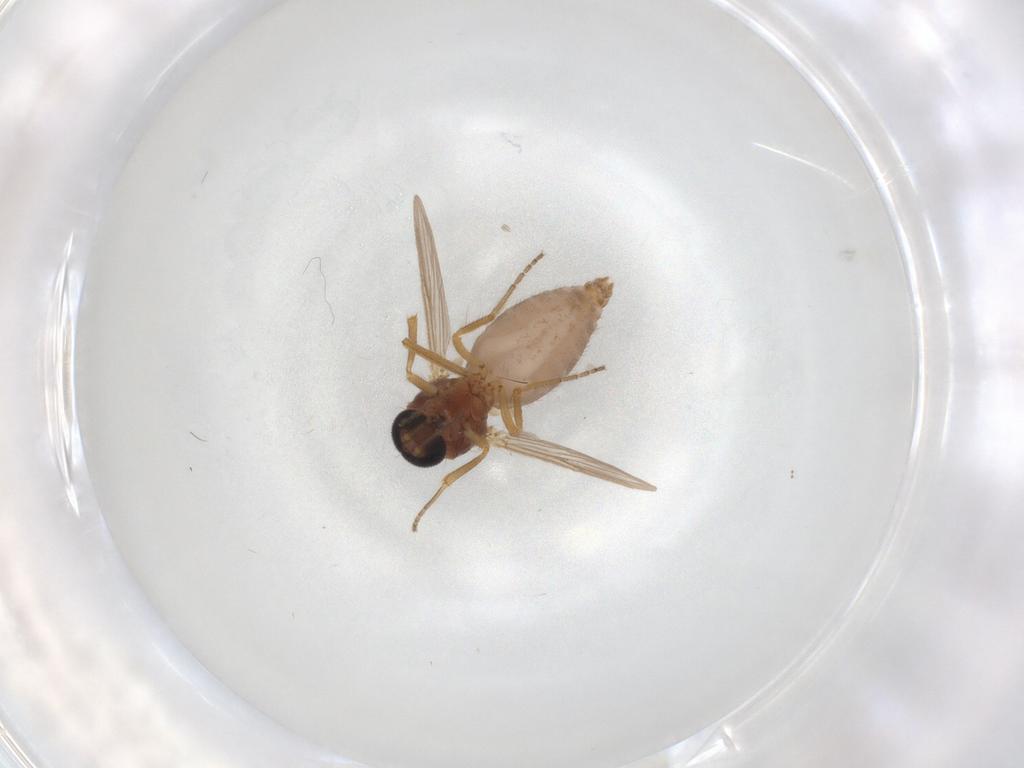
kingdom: Animalia
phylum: Arthropoda
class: Insecta
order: Diptera
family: Ceratopogonidae
